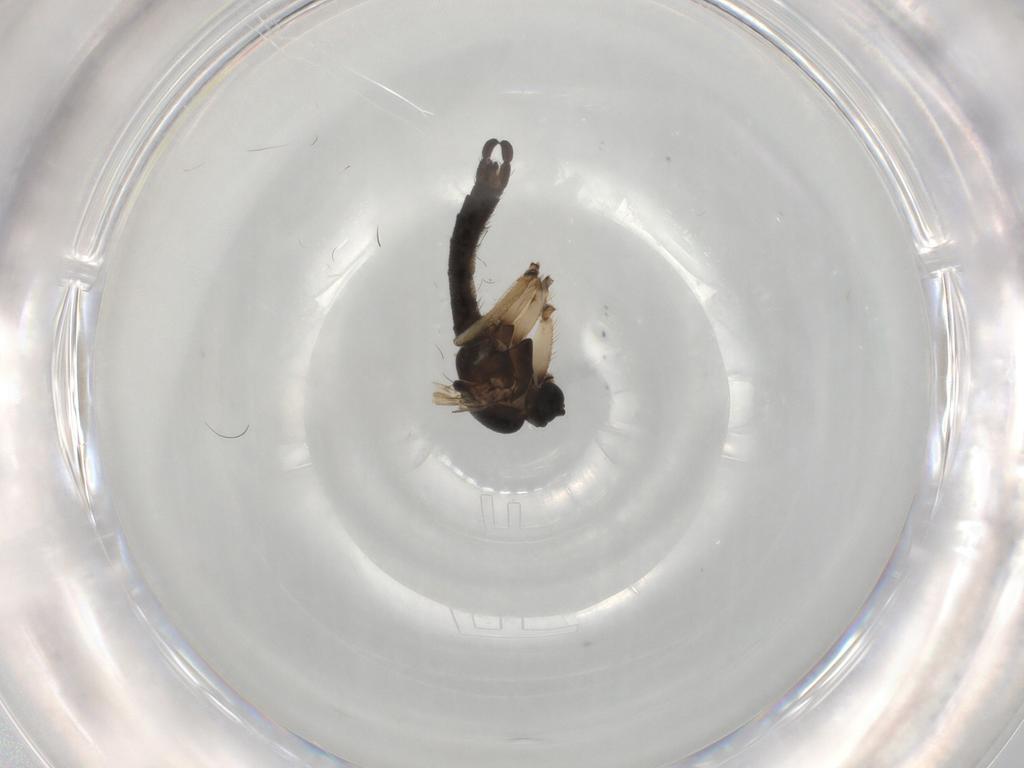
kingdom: Animalia
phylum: Arthropoda
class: Insecta
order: Diptera
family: Sciaridae
